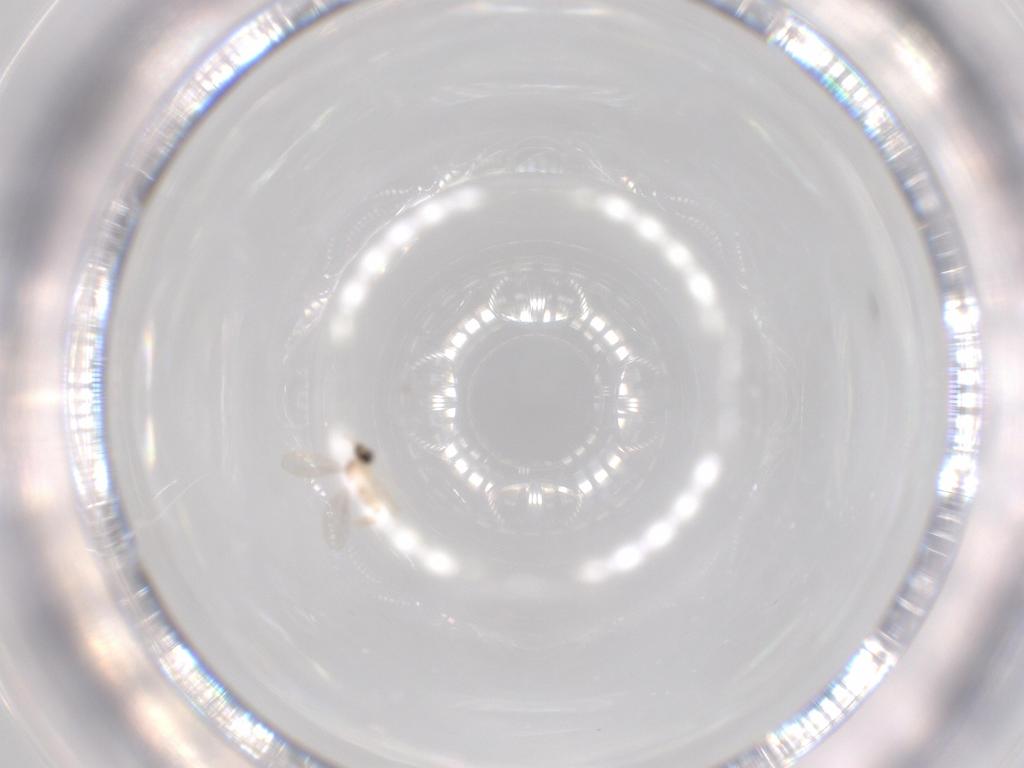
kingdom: Animalia
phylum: Arthropoda
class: Insecta
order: Diptera
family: Cecidomyiidae
